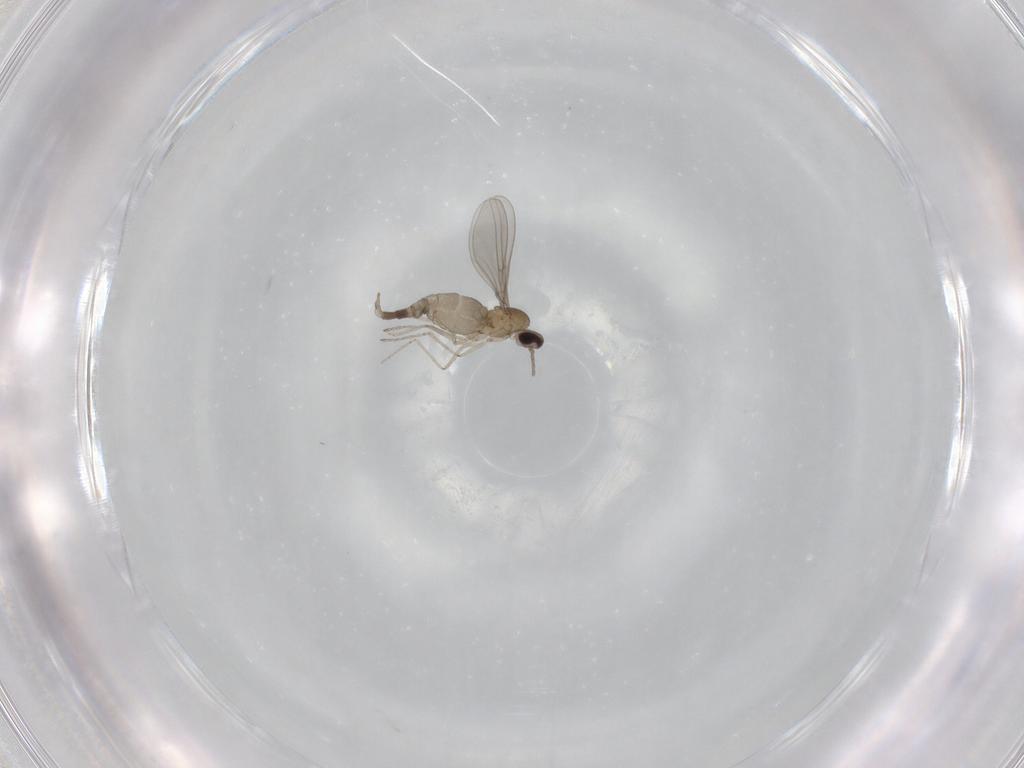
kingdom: Animalia
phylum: Arthropoda
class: Insecta
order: Diptera
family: Cecidomyiidae
